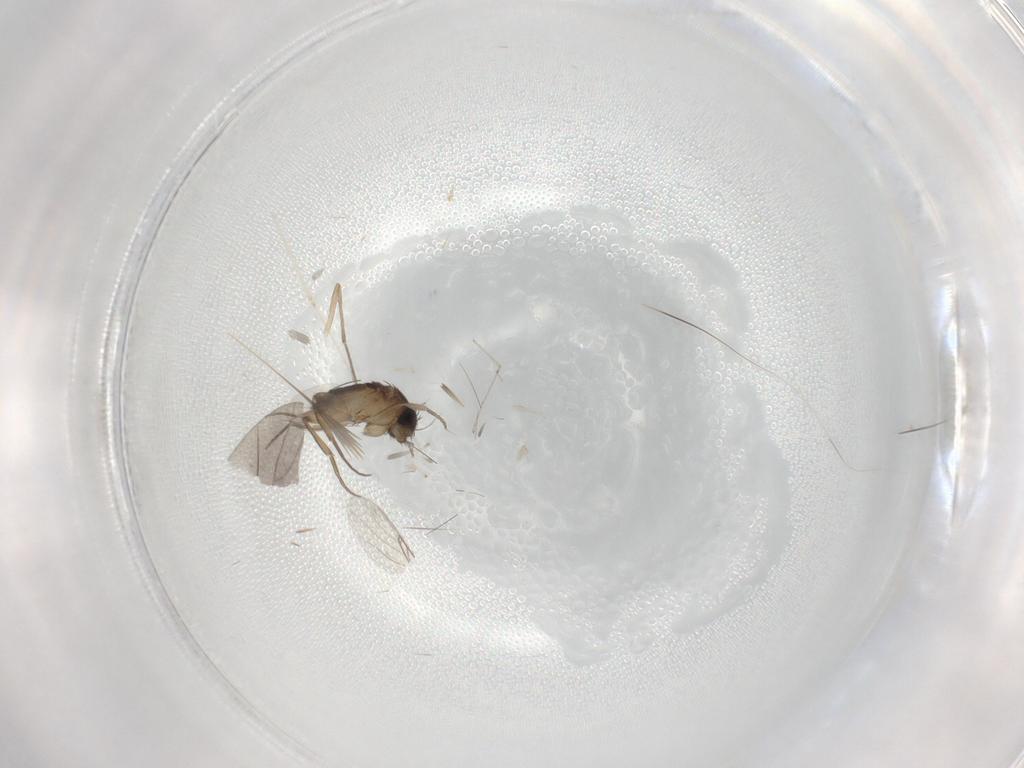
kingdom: Animalia
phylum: Arthropoda
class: Insecta
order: Diptera
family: Phoridae
